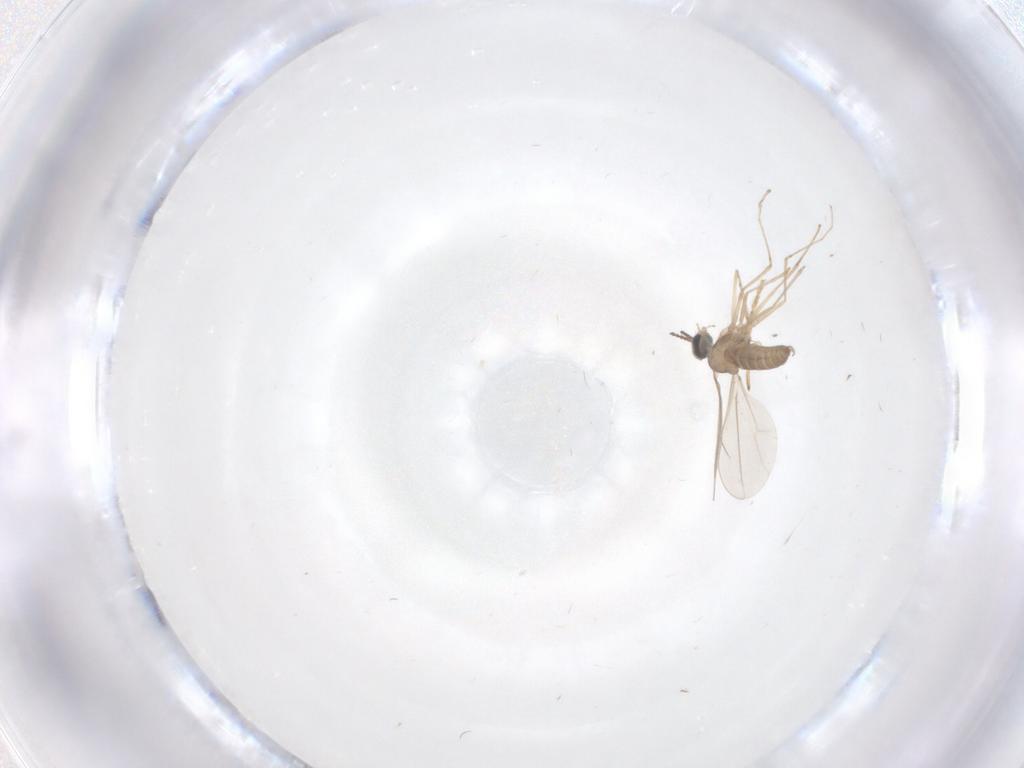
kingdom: Animalia
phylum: Arthropoda
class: Insecta
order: Diptera
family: Cecidomyiidae
